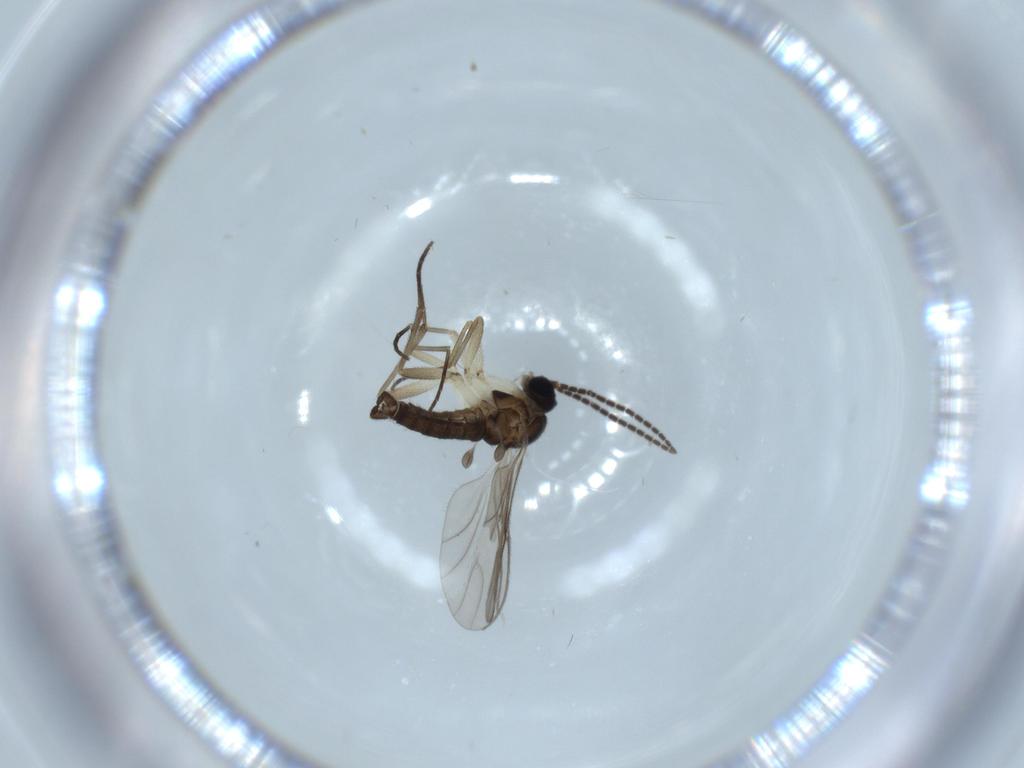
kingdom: Animalia
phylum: Arthropoda
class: Insecta
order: Diptera
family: Sciaridae
